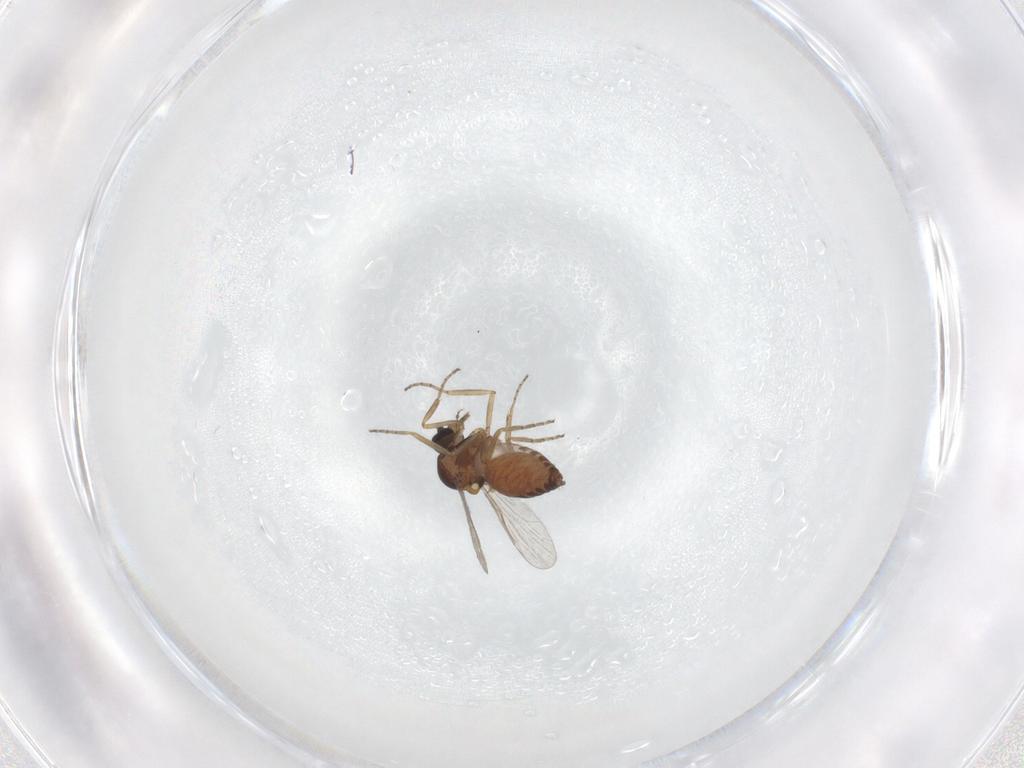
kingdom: Animalia
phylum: Arthropoda
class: Insecta
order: Diptera
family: Ceratopogonidae
